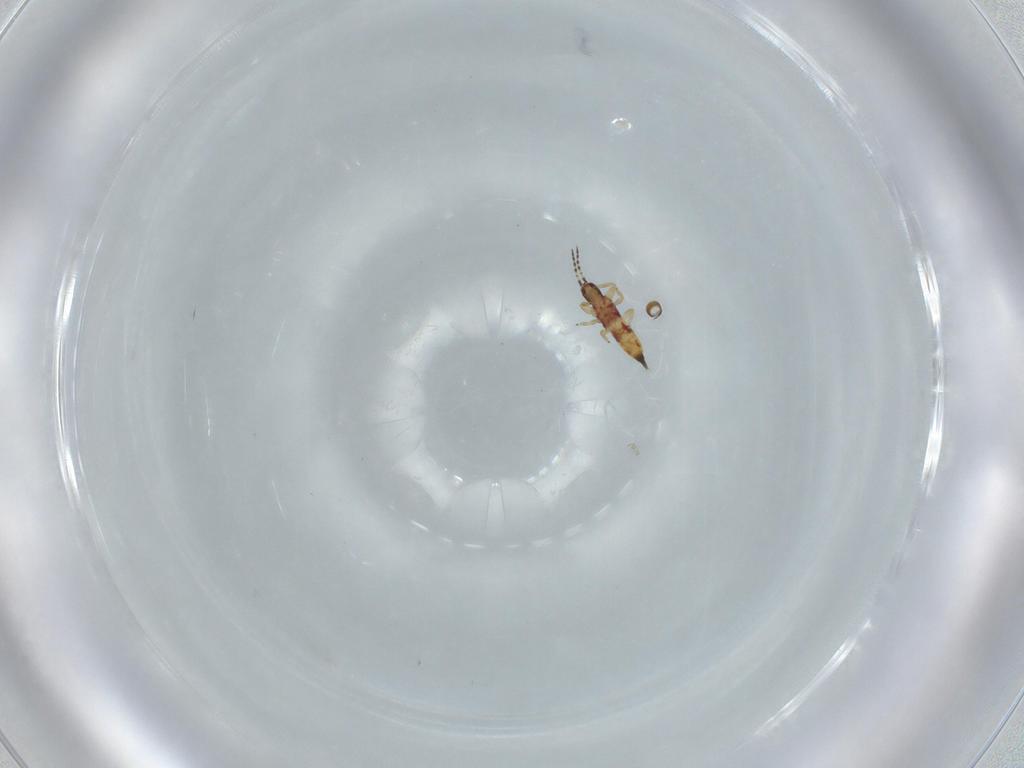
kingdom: Animalia
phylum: Arthropoda
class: Insecta
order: Thysanoptera
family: Phlaeothripidae
